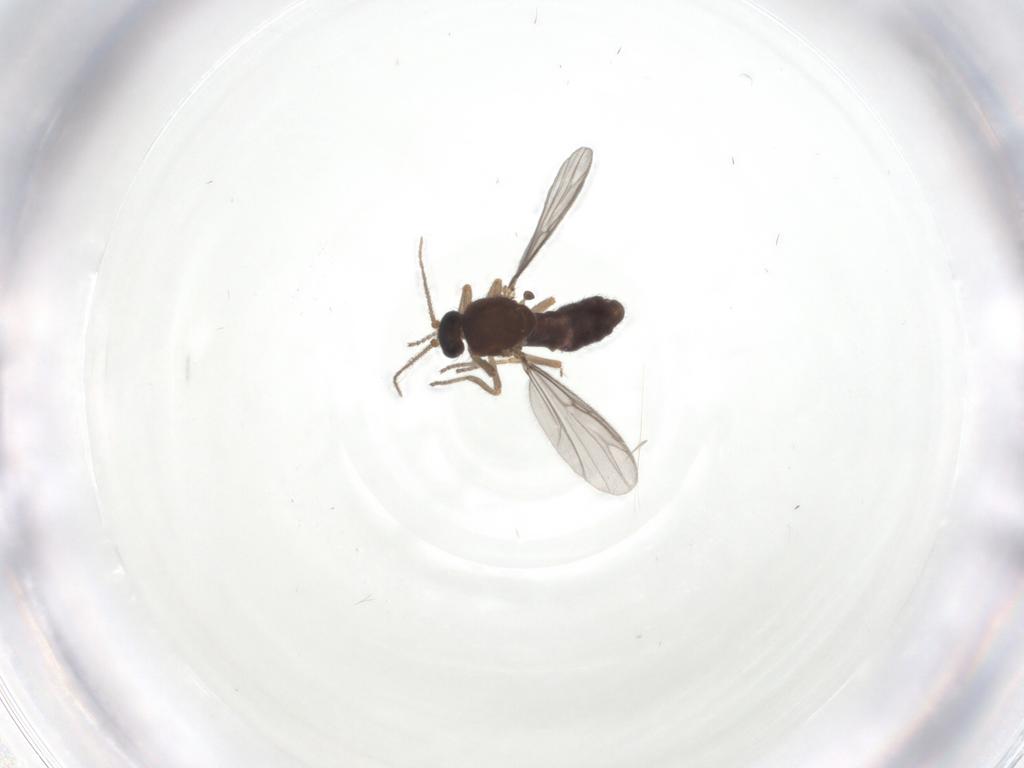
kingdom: Animalia
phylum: Arthropoda
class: Insecta
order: Diptera
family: Ceratopogonidae
